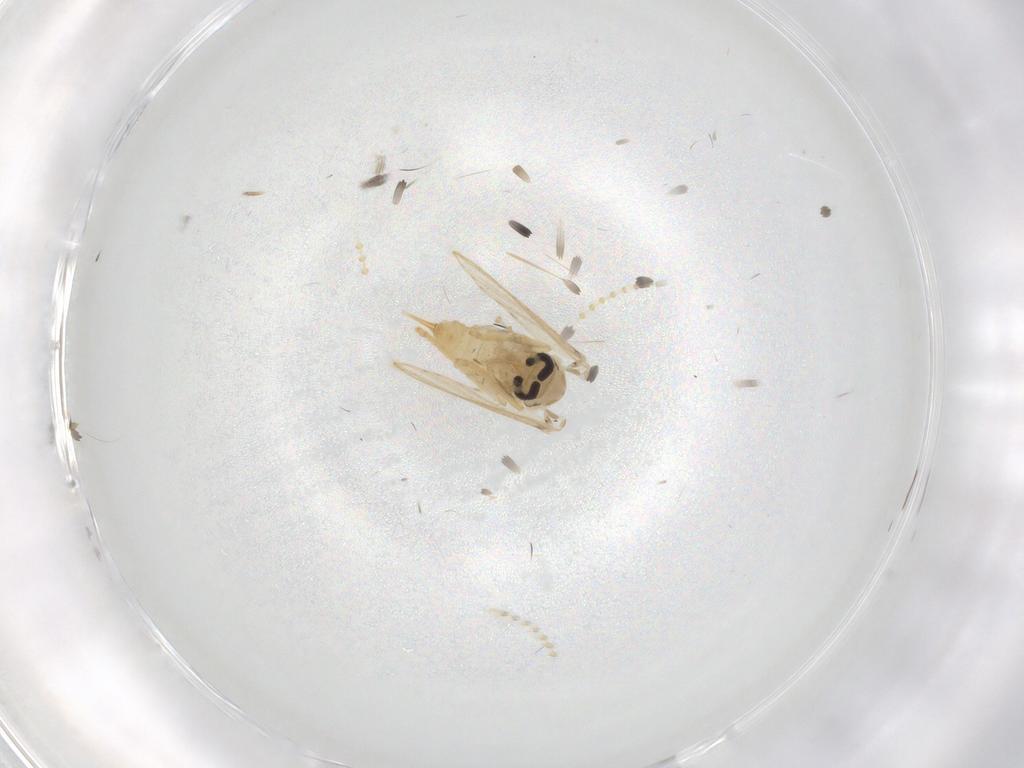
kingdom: Animalia
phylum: Arthropoda
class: Insecta
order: Diptera
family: Psychodidae
